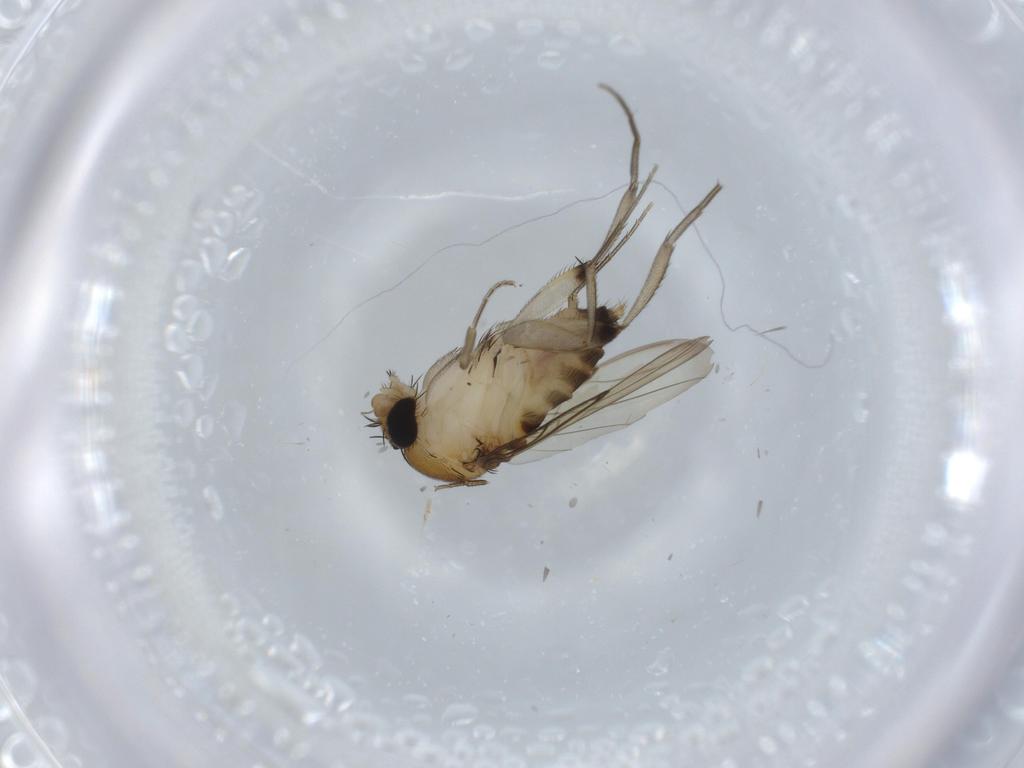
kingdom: Animalia
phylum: Arthropoda
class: Insecta
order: Diptera
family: Phoridae
